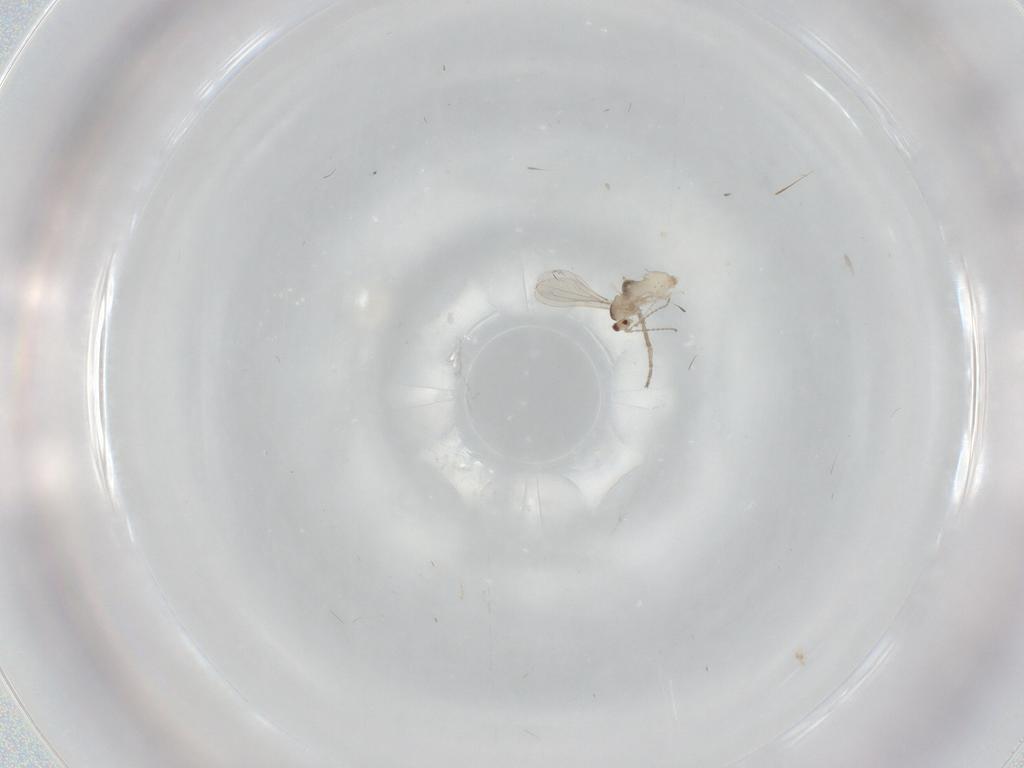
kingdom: Animalia
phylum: Arthropoda
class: Insecta
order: Diptera
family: Cecidomyiidae
